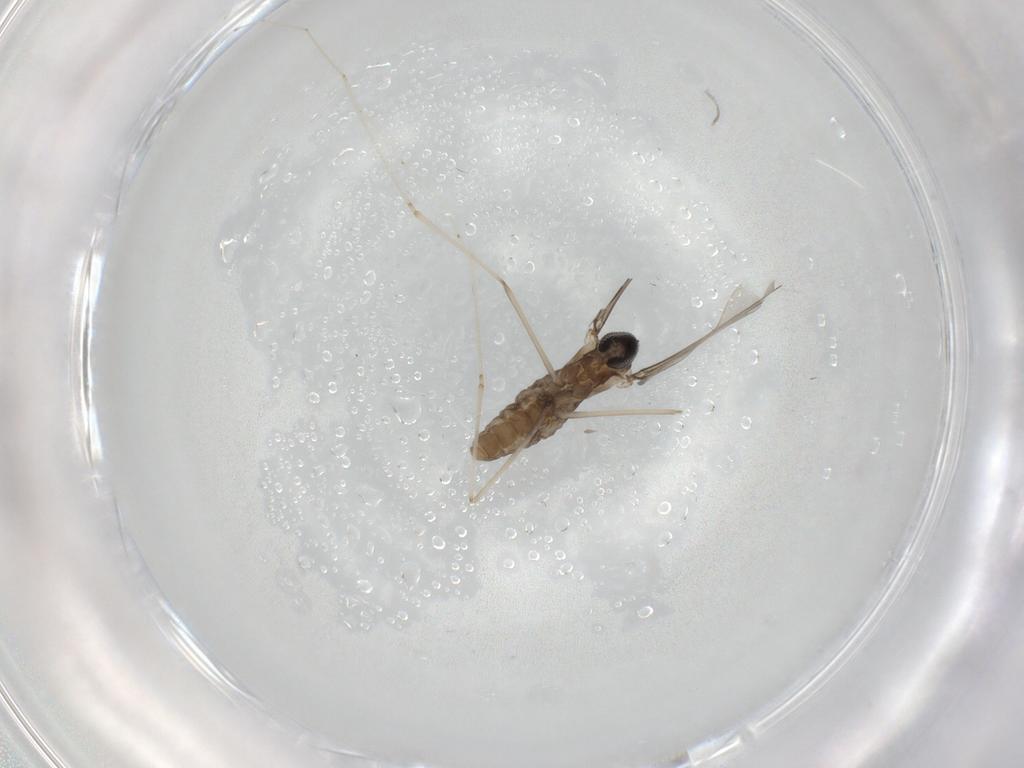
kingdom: Animalia
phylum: Arthropoda
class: Insecta
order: Diptera
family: Cecidomyiidae
